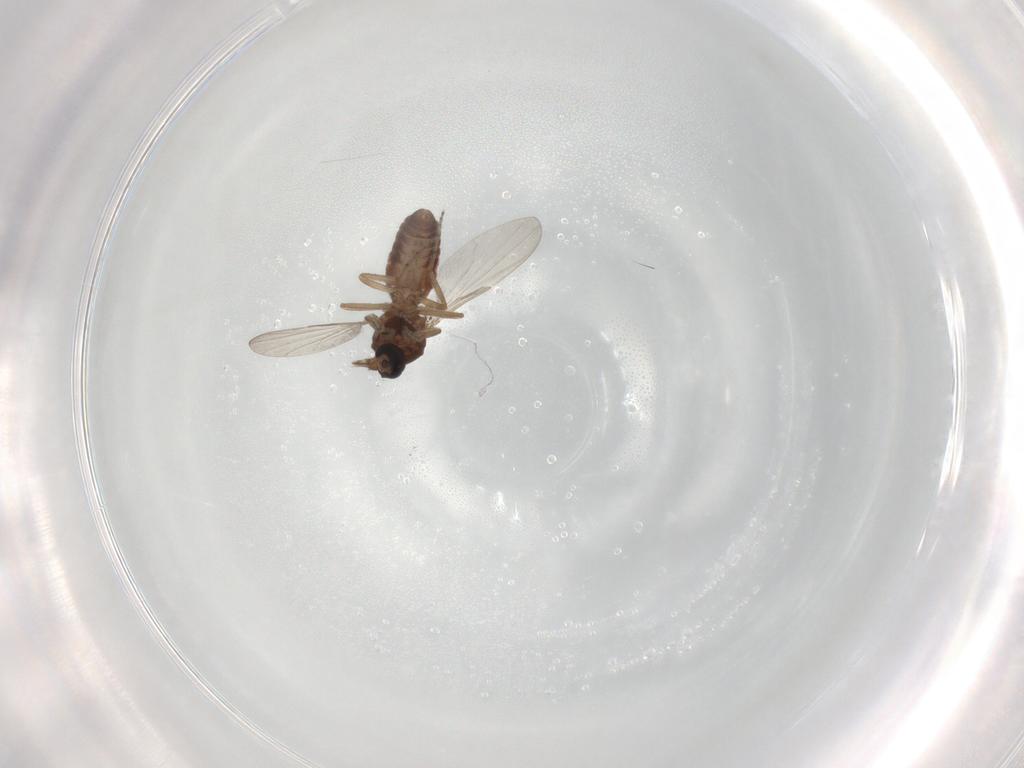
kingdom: Animalia
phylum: Arthropoda
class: Insecta
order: Diptera
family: Ceratopogonidae
